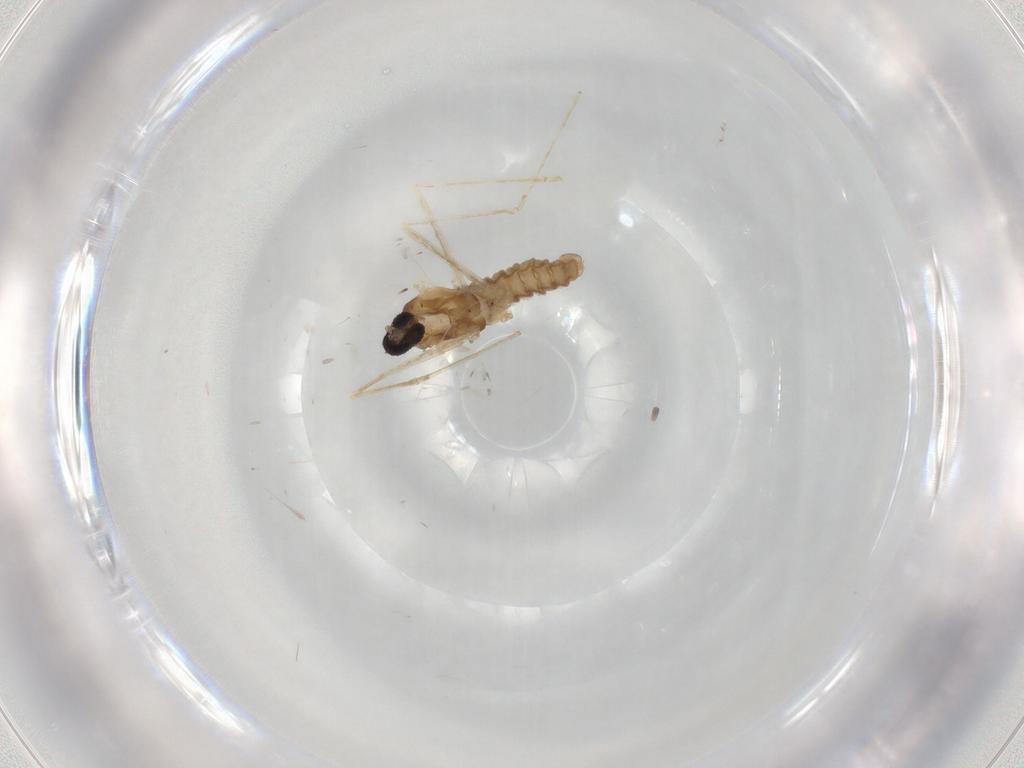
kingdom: Animalia
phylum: Arthropoda
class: Insecta
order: Diptera
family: Cecidomyiidae
